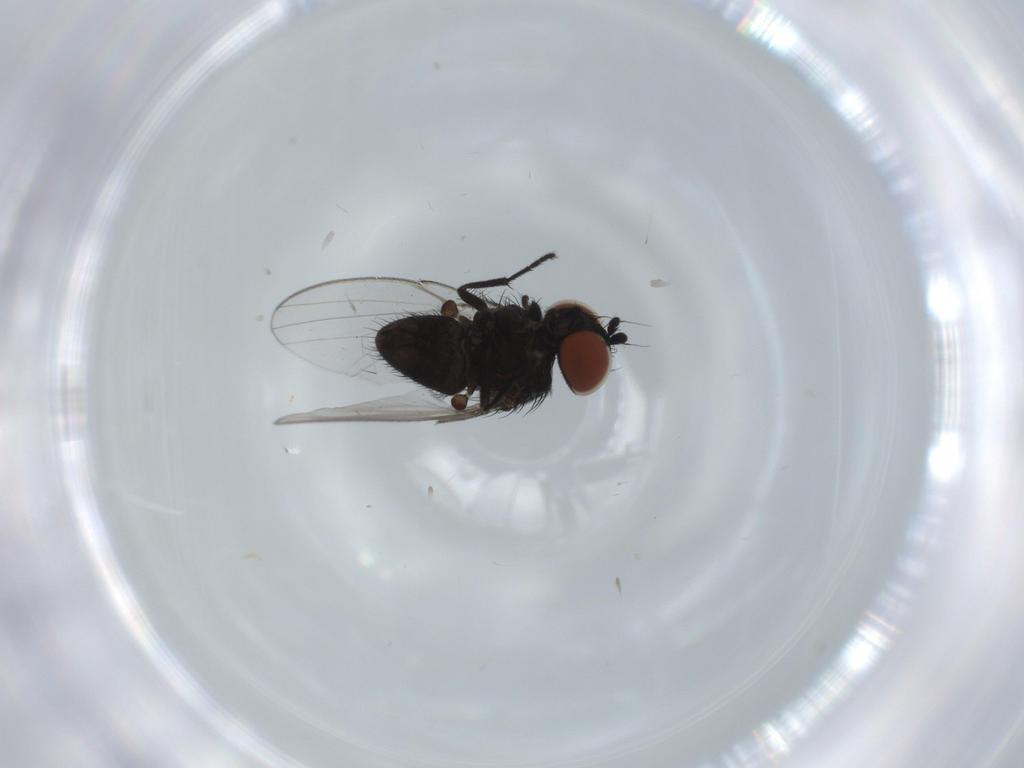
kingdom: Animalia
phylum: Arthropoda
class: Insecta
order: Diptera
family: Milichiidae
